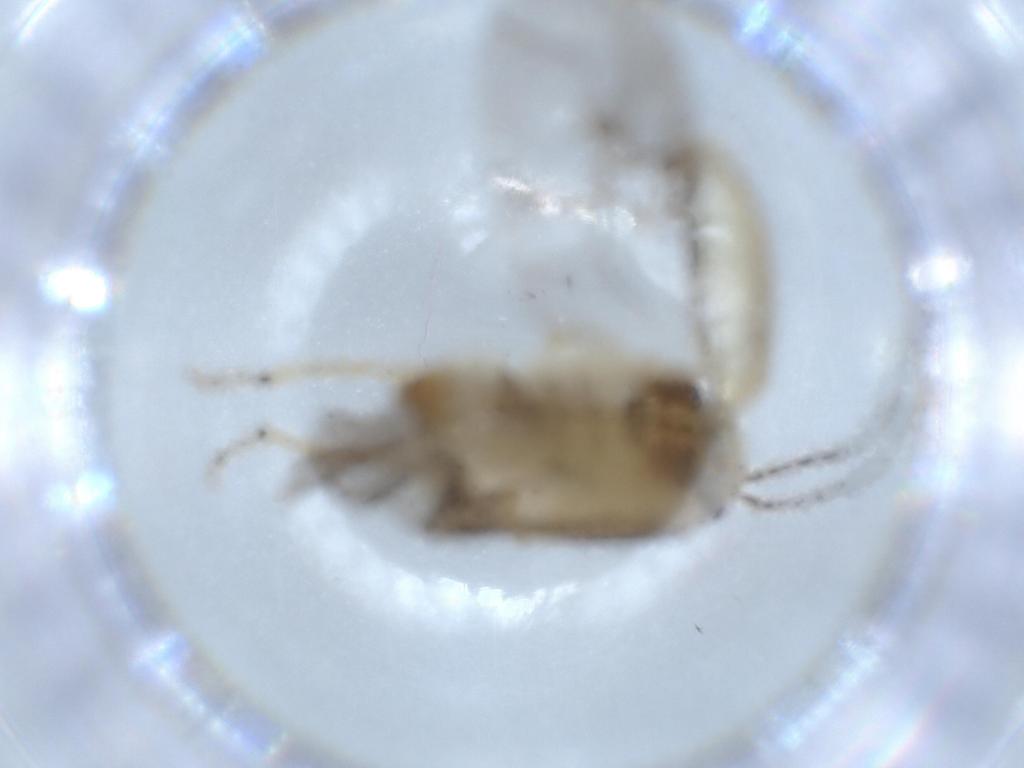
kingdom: Animalia
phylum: Arthropoda
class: Insecta
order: Coleoptera
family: Chrysomelidae
